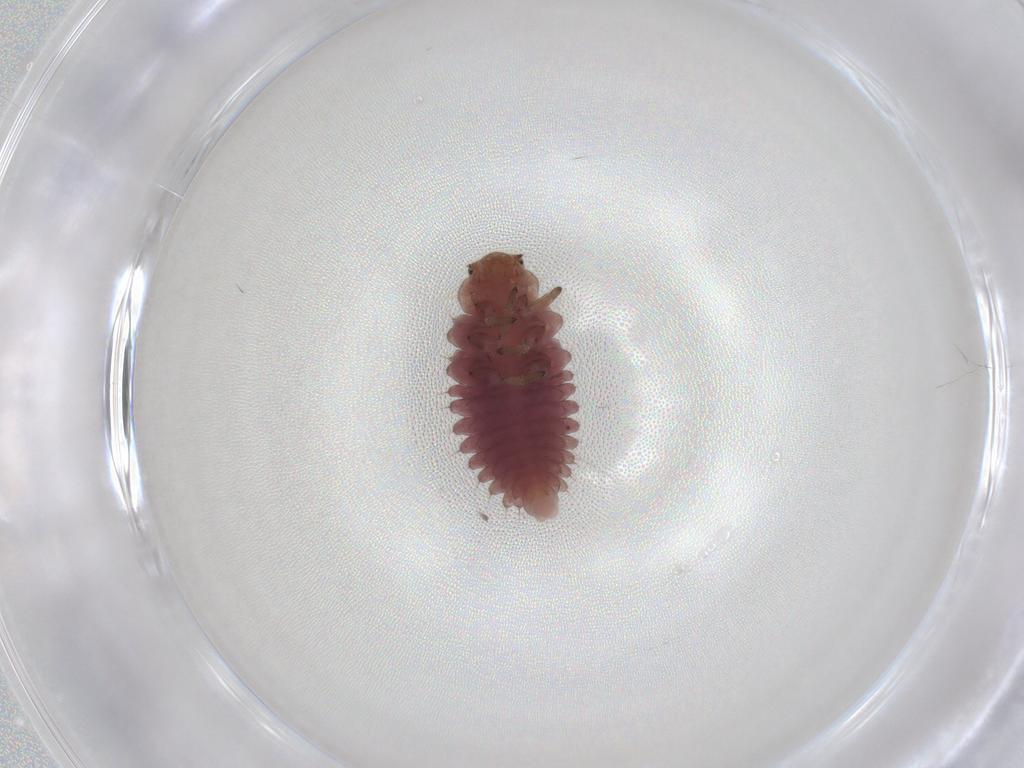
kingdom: Animalia
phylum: Arthropoda
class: Insecta
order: Coleoptera
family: Coccinellidae
